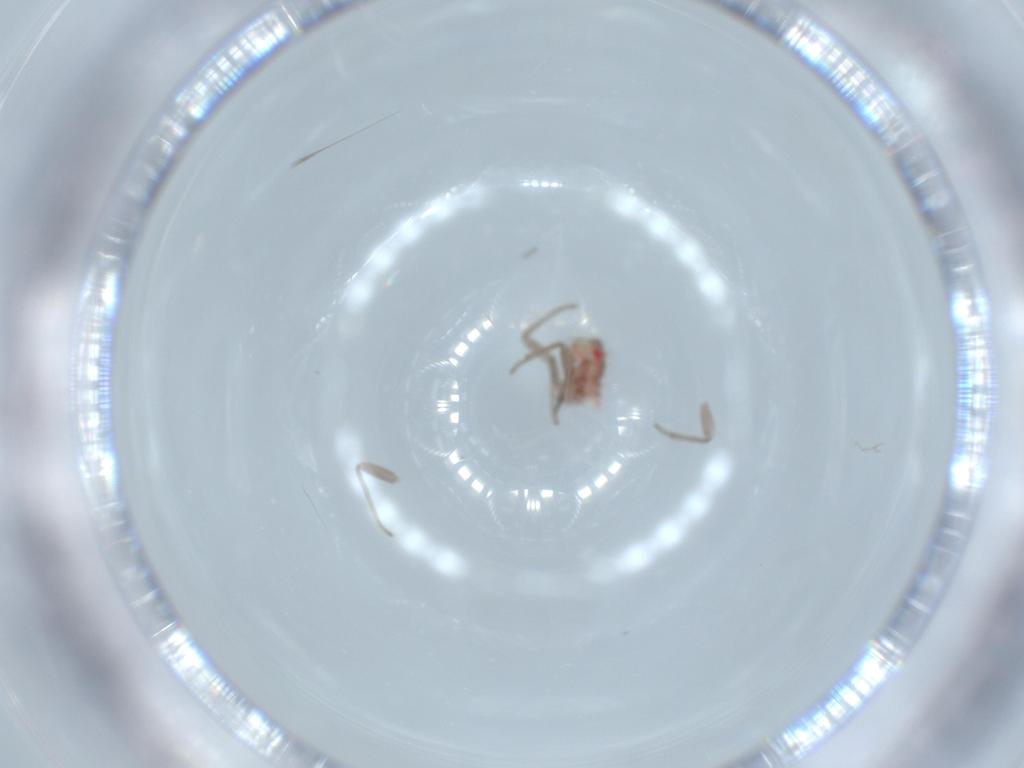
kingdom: Animalia
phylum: Arthropoda
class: Insecta
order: Hemiptera
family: Miridae
